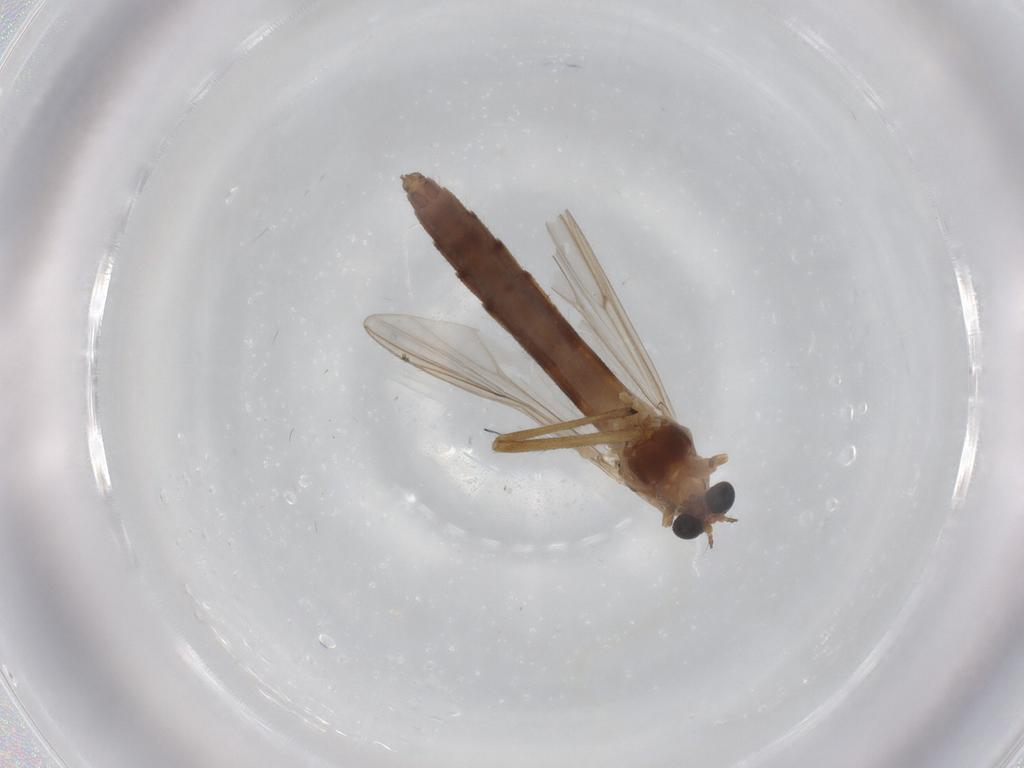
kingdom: Animalia
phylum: Arthropoda
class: Insecta
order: Diptera
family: Chironomidae
